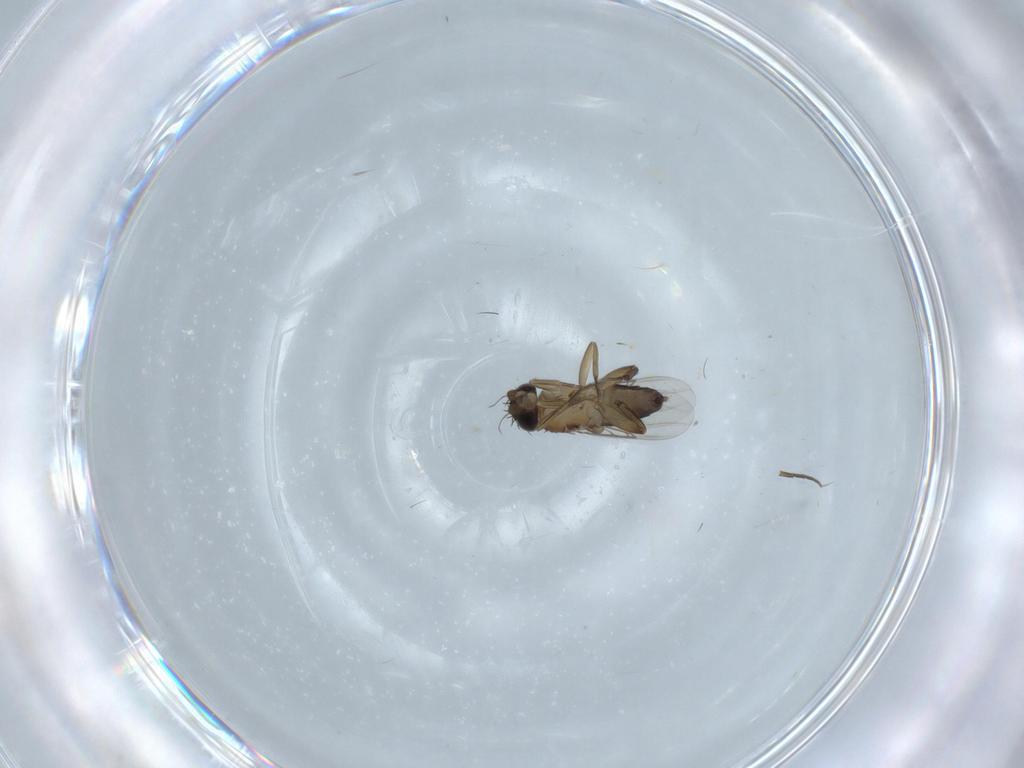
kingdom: Animalia
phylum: Arthropoda
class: Insecta
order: Diptera
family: Phoridae
